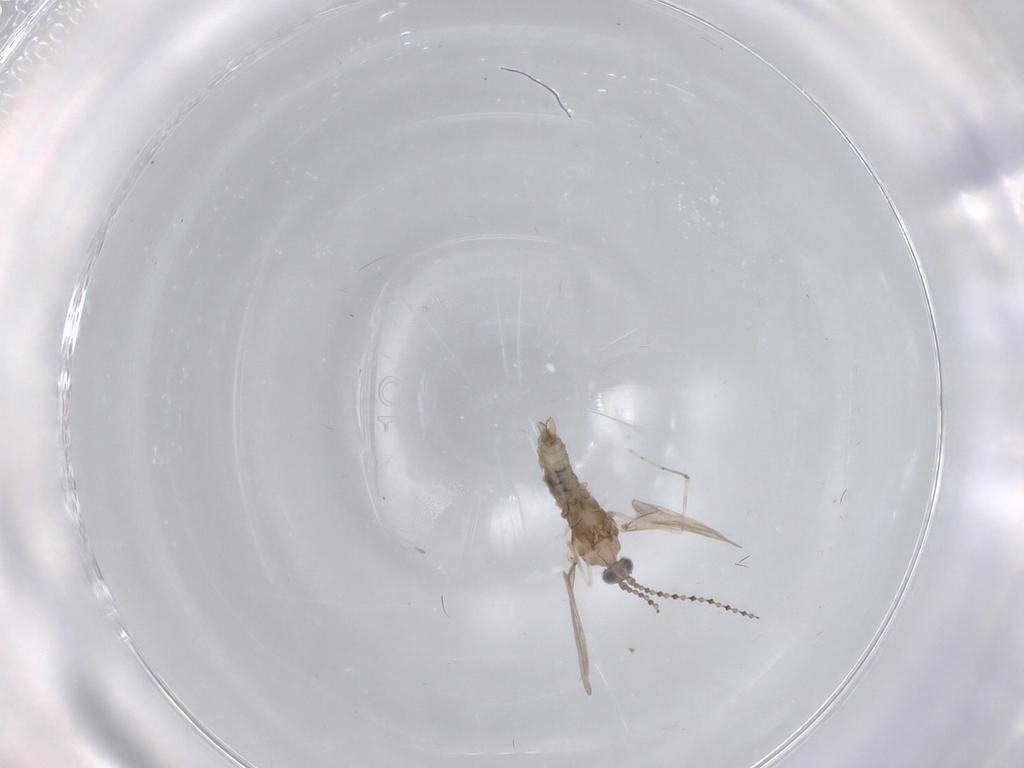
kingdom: Animalia
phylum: Arthropoda
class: Insecta
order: Diptera
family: Cecidomyiidae
